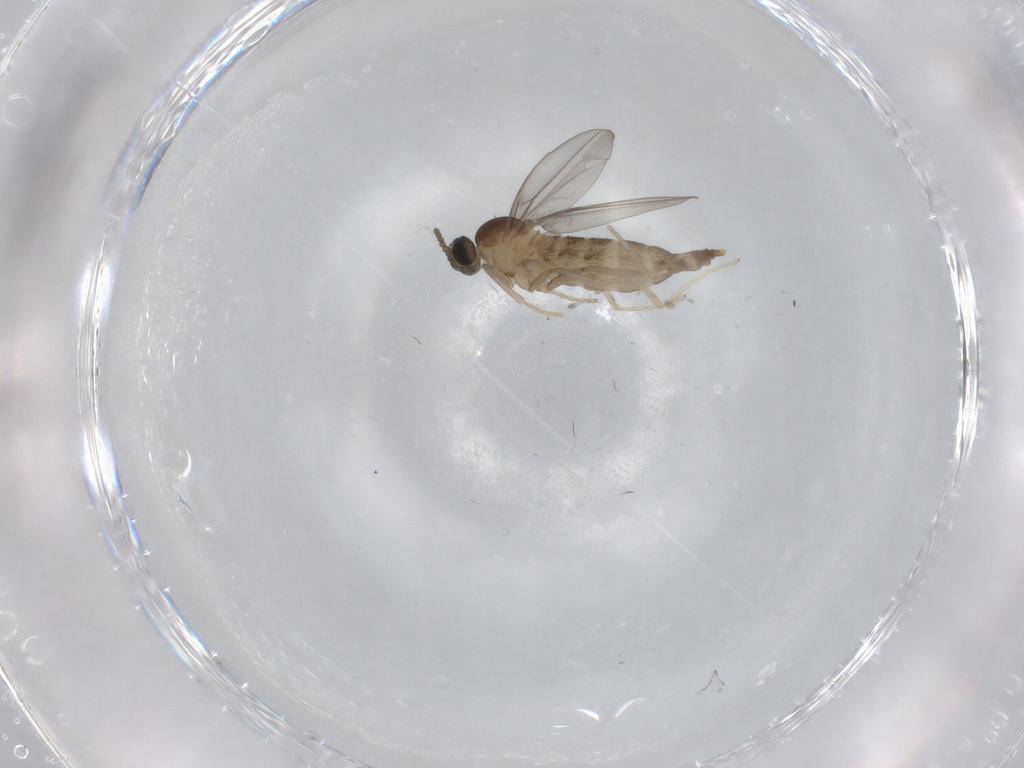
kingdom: Animalia
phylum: Arthropoda
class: Insecta
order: Diptera
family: Cecidomyiidae
